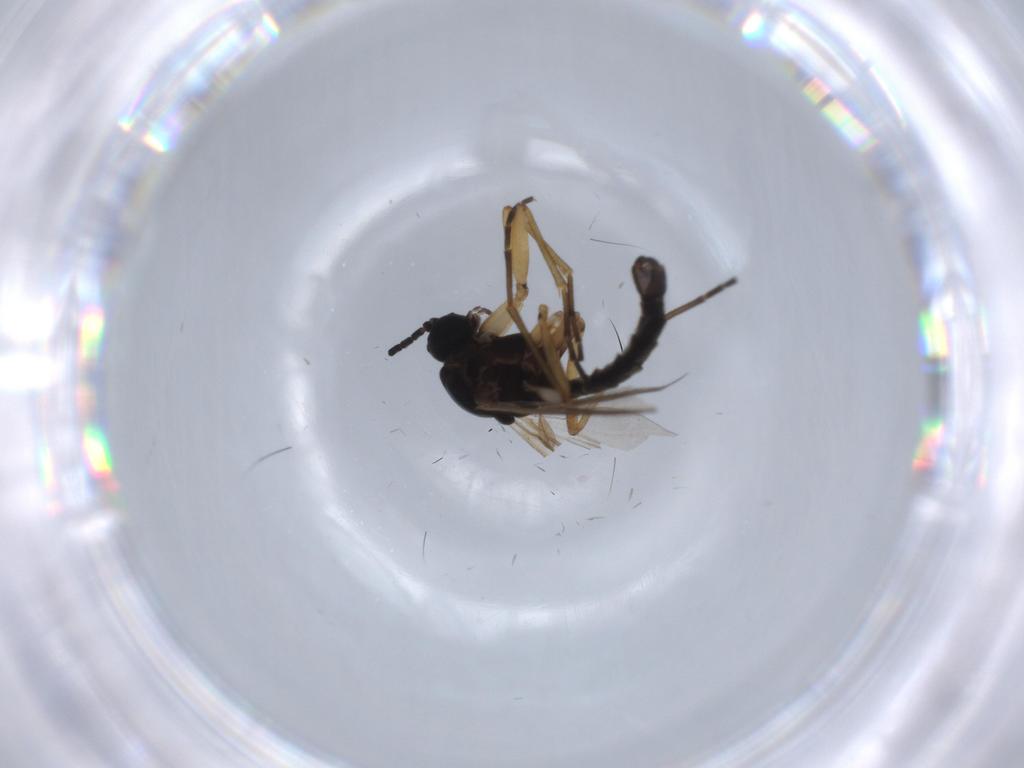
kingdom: Animalia
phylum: Arthropoda
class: Insecta
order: Diptera
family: Sciaridae
